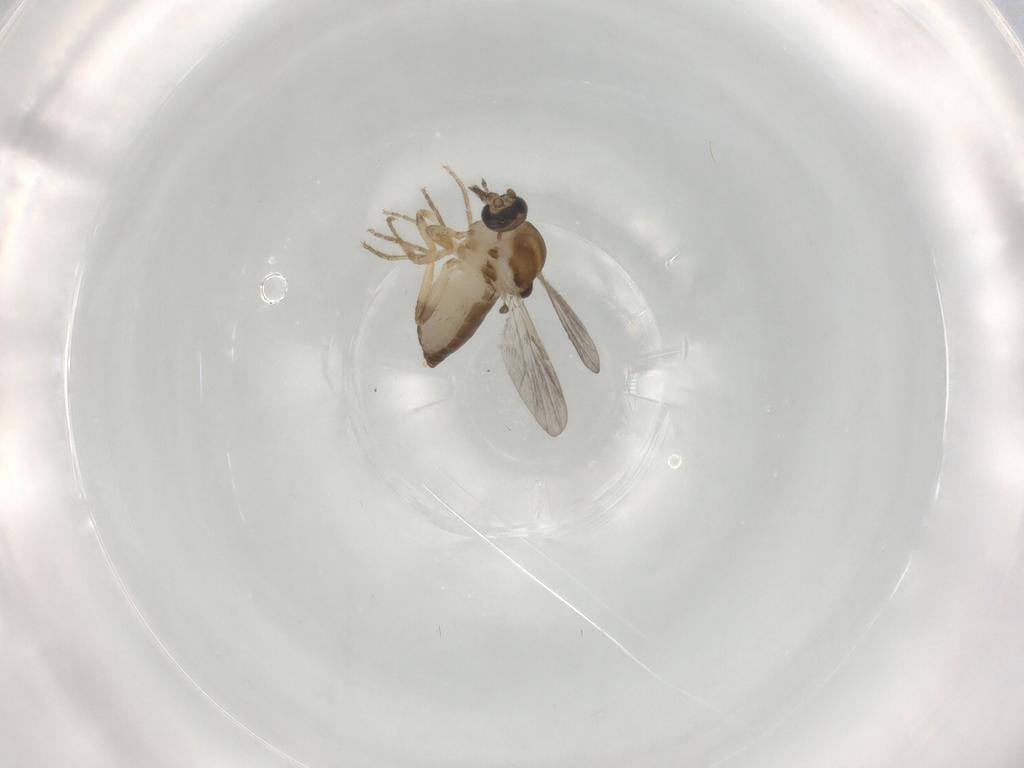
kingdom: Animalia
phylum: Arthropoda
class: Insecta
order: Diptera
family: Ceratopogonidae
